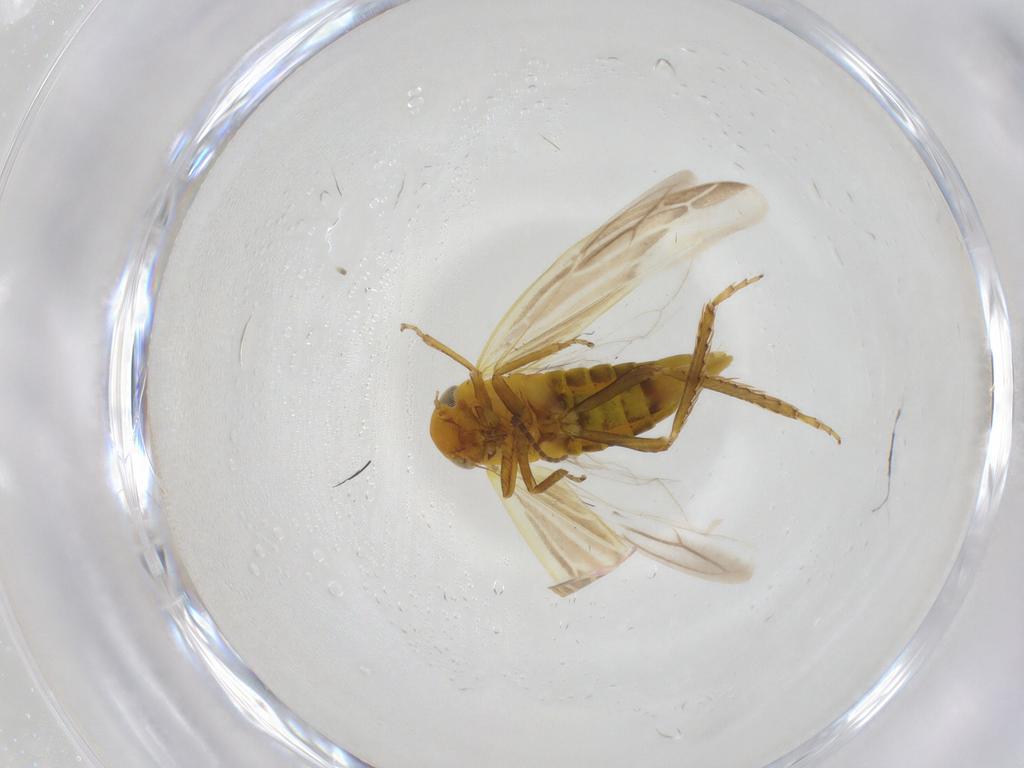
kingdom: Animalia
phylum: Arthropoda
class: Insecta
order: Hemiptera
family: Cicadellidae
